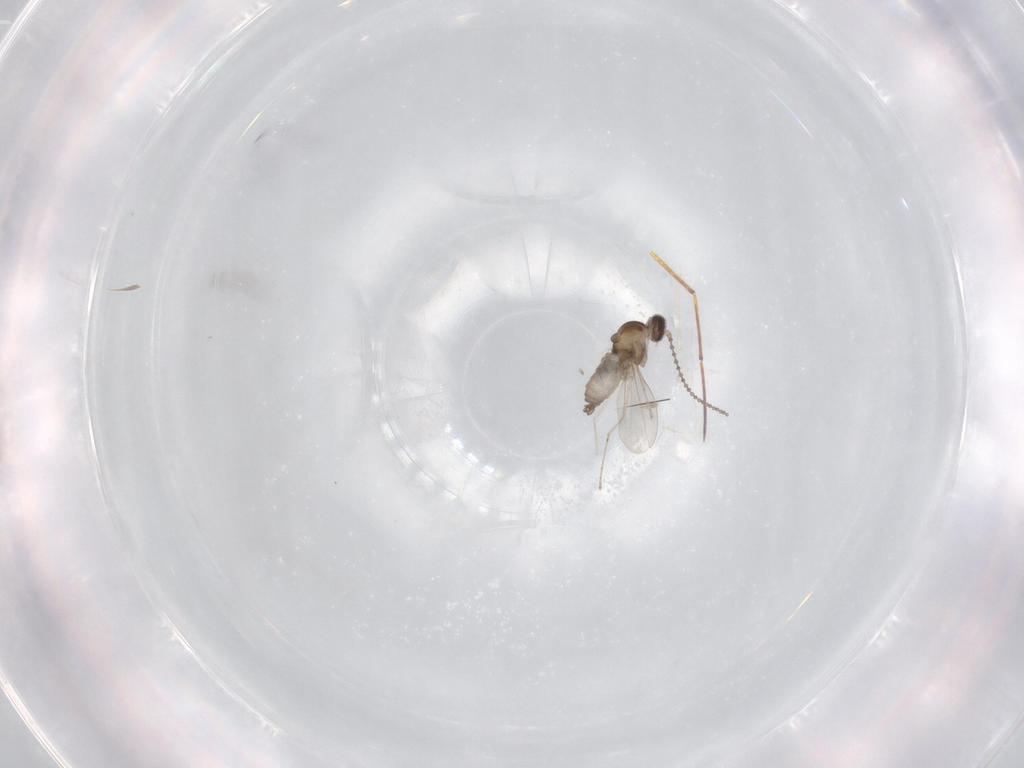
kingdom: Animalia
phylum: Arthropoda
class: Insecta
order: Diptera
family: Cecidomyiidae
